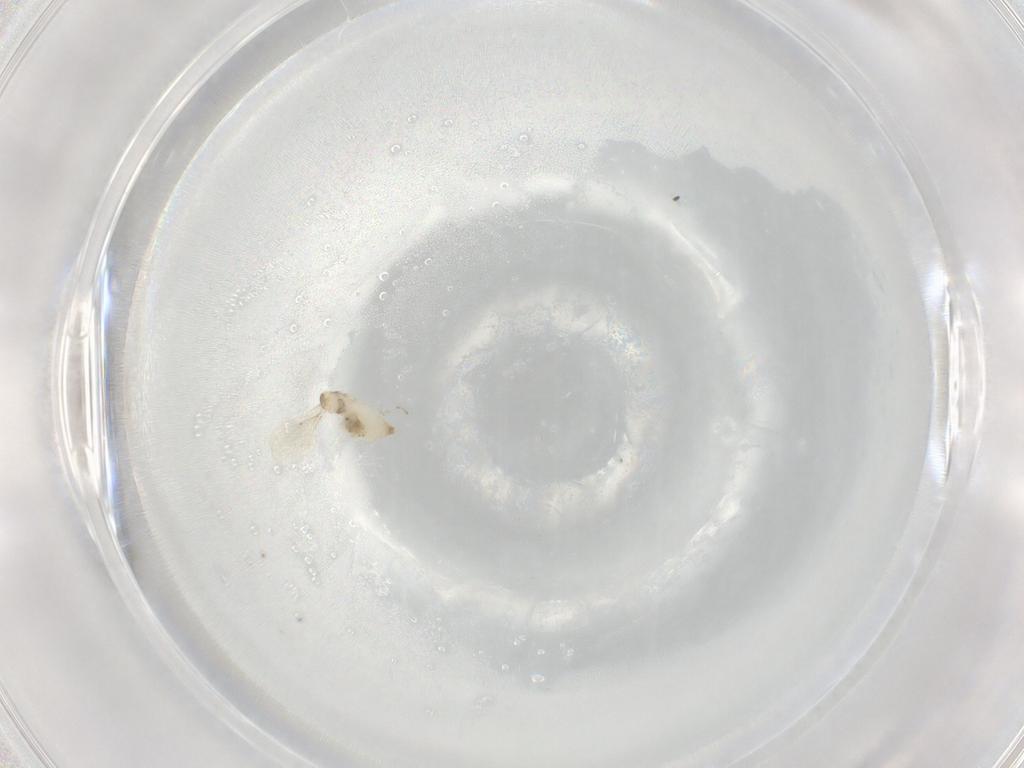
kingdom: Animalia
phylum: Arthropoda
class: Insecta
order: Diptera
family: Cecidomyiidae
